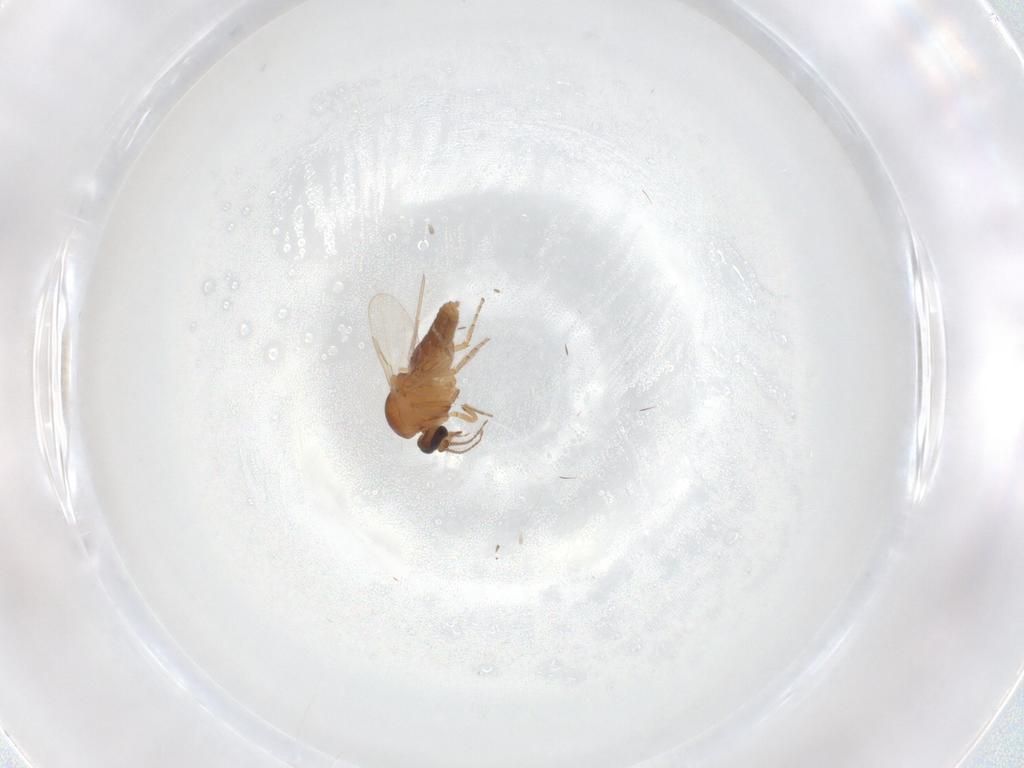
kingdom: Animalia
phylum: Arthropoda
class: Insecta
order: Diptera
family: Ceratopogonidae
